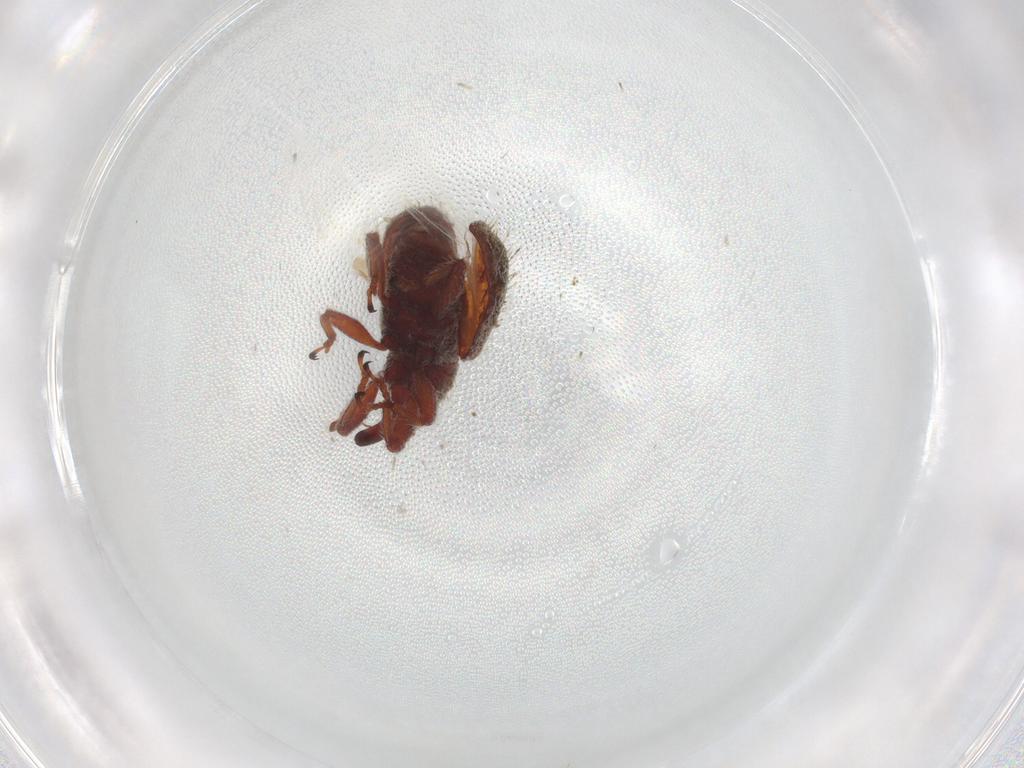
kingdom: Animalia
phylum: Arthropoda
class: Insecta
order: Coleoptera
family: Curculionidae
